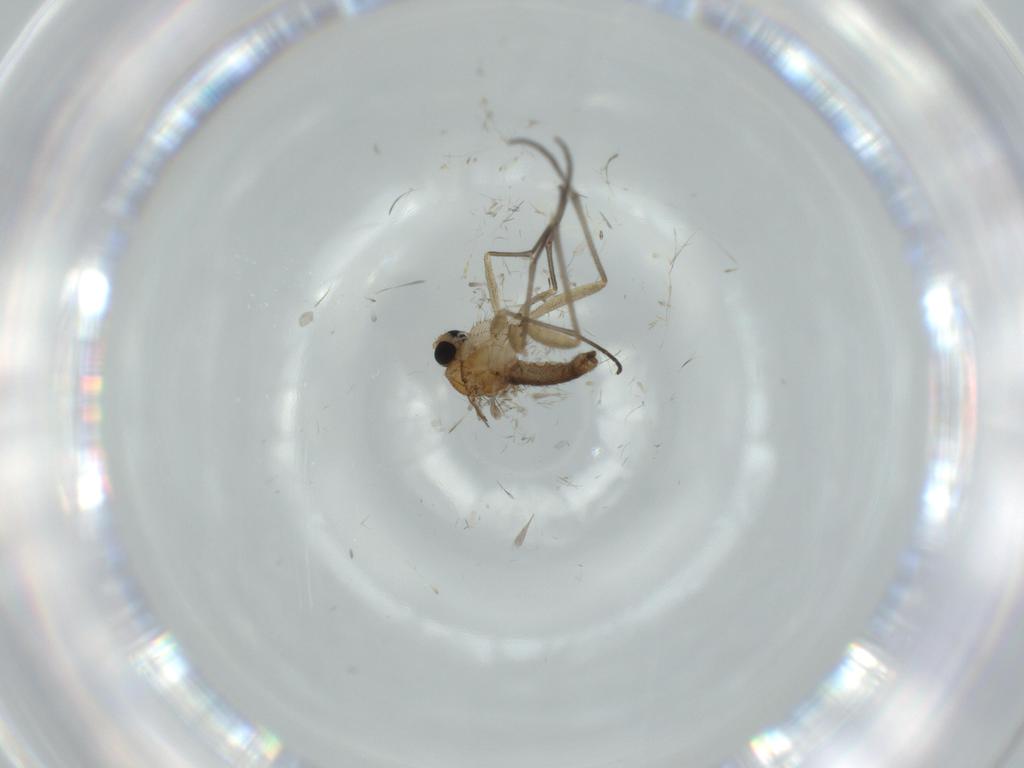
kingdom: Animalia
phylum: Arthropoda
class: Insecta
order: Diptera
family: Sciaridae
